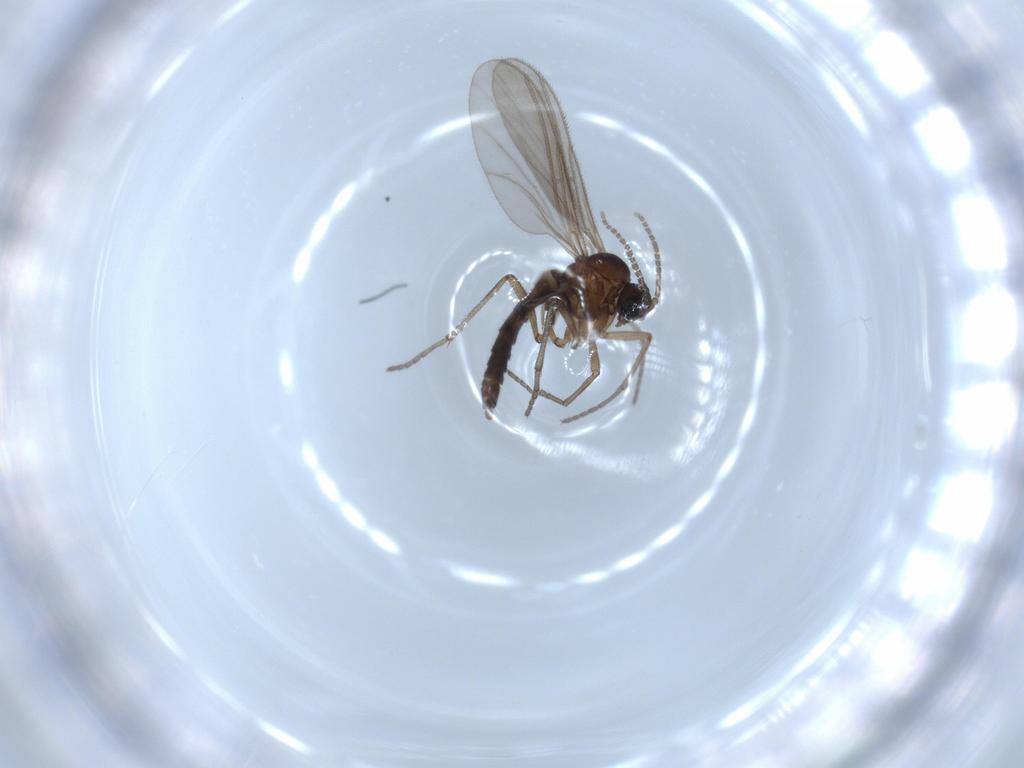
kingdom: Animalia
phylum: Arthropoda
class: Insecta
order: Diptera
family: Sciaridae
